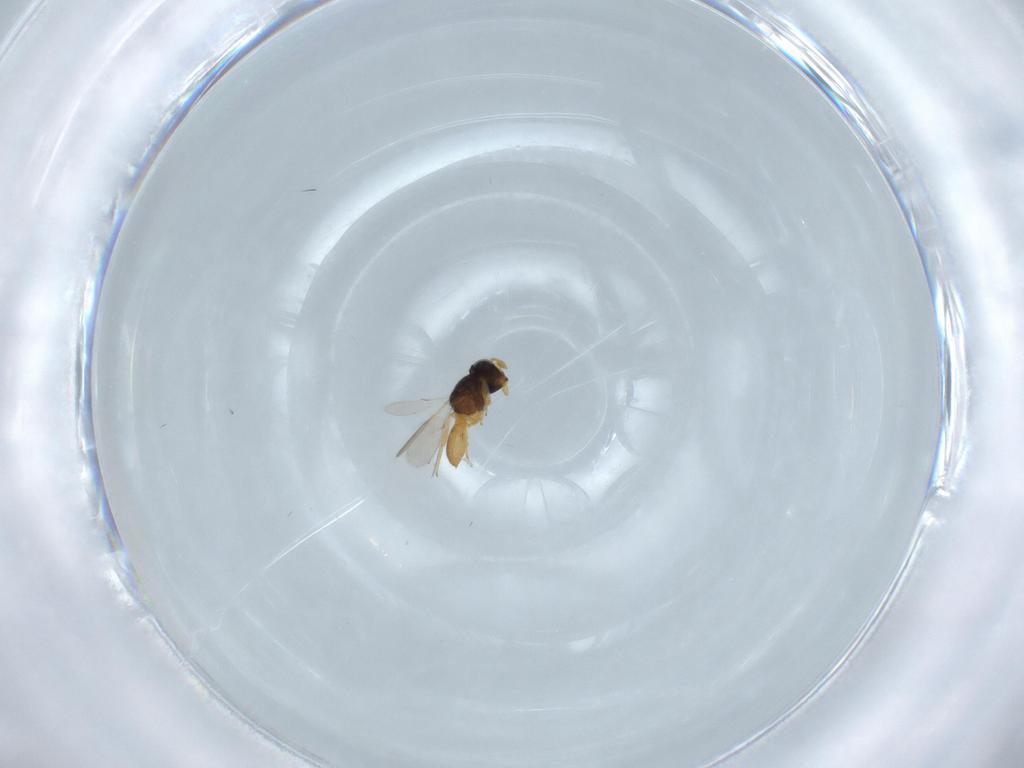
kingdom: Animalia
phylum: Arthropoda
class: Insecta
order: Hymenoptera
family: Scelionidae
